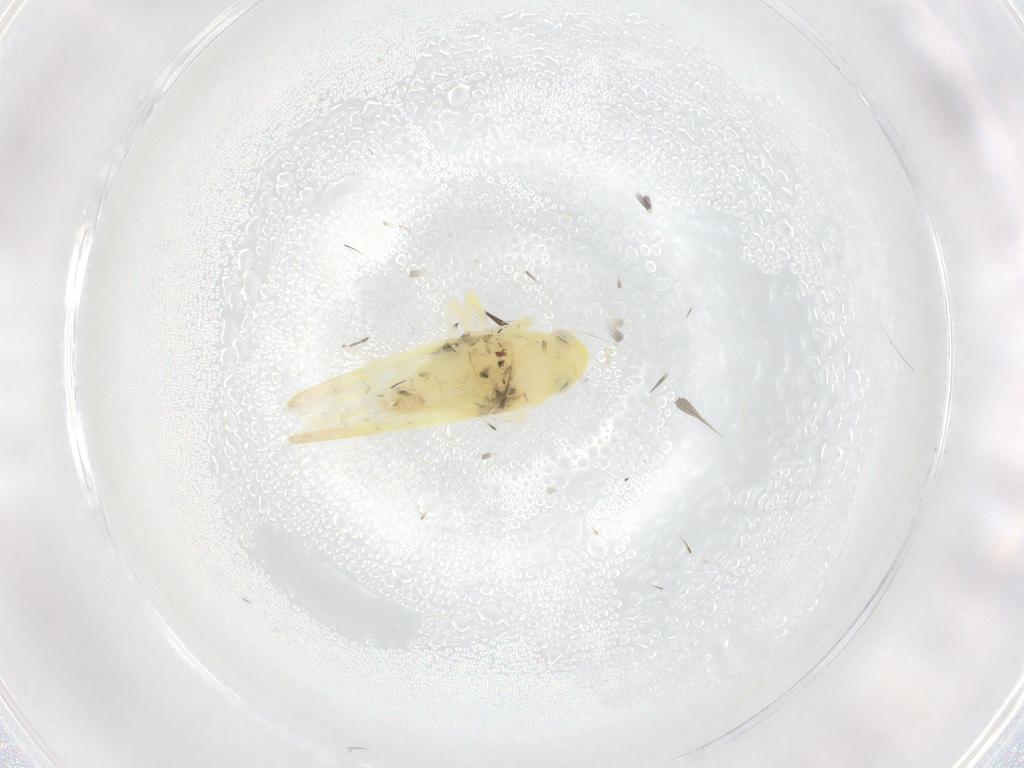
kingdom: Animalia
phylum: Arthropoda
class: Insecta
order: Hemiptera
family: Cicadellidae
